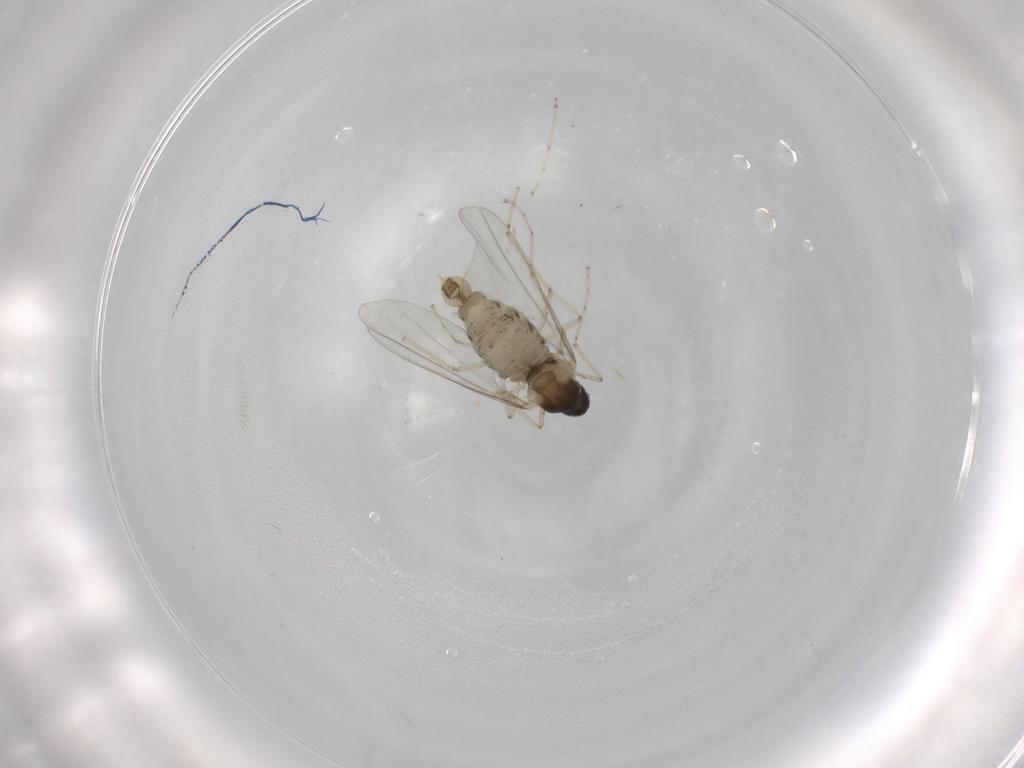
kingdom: Animalia
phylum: Arthropoda
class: Insecta
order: Diptera
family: Cecidomyiidae
